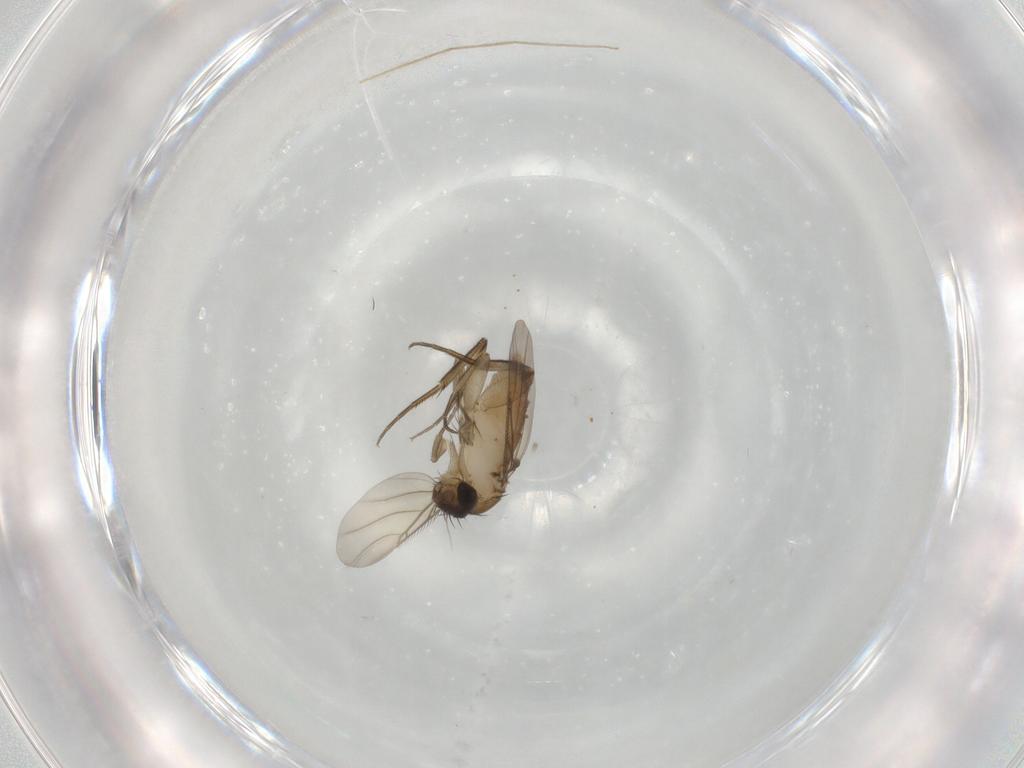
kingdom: Animalia
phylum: Arthropoda
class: Insecta
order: Diptera
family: Phoridae
